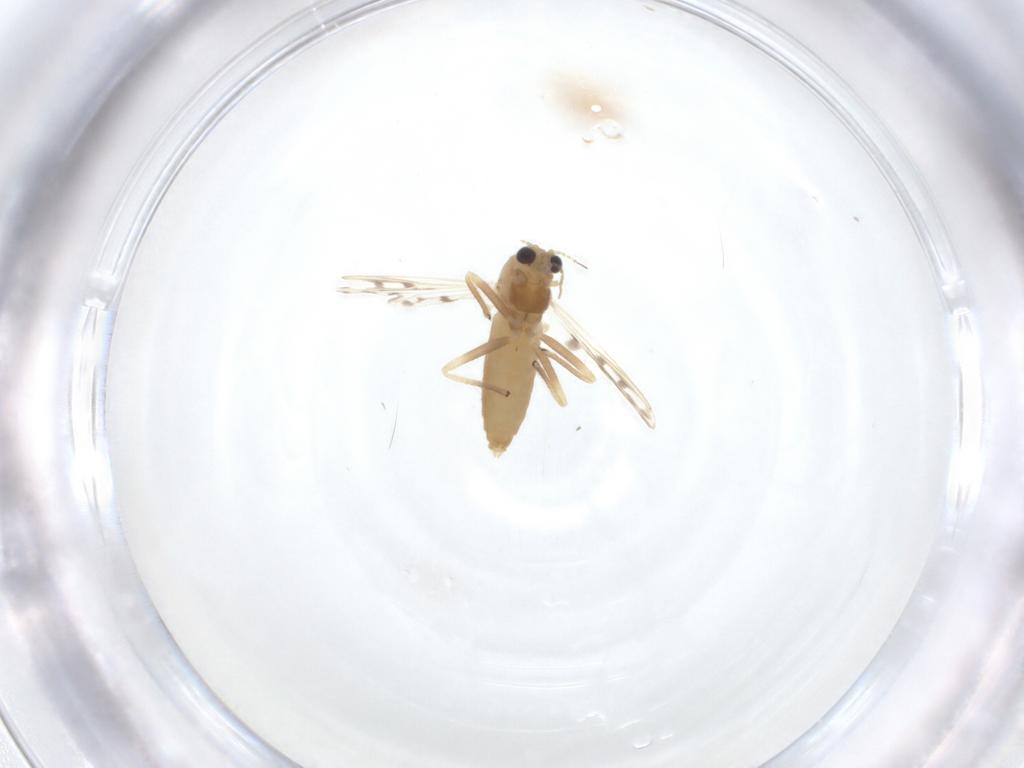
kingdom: Animalia
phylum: Arthropoda
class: Insecta
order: Diptera
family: Chironomidae
